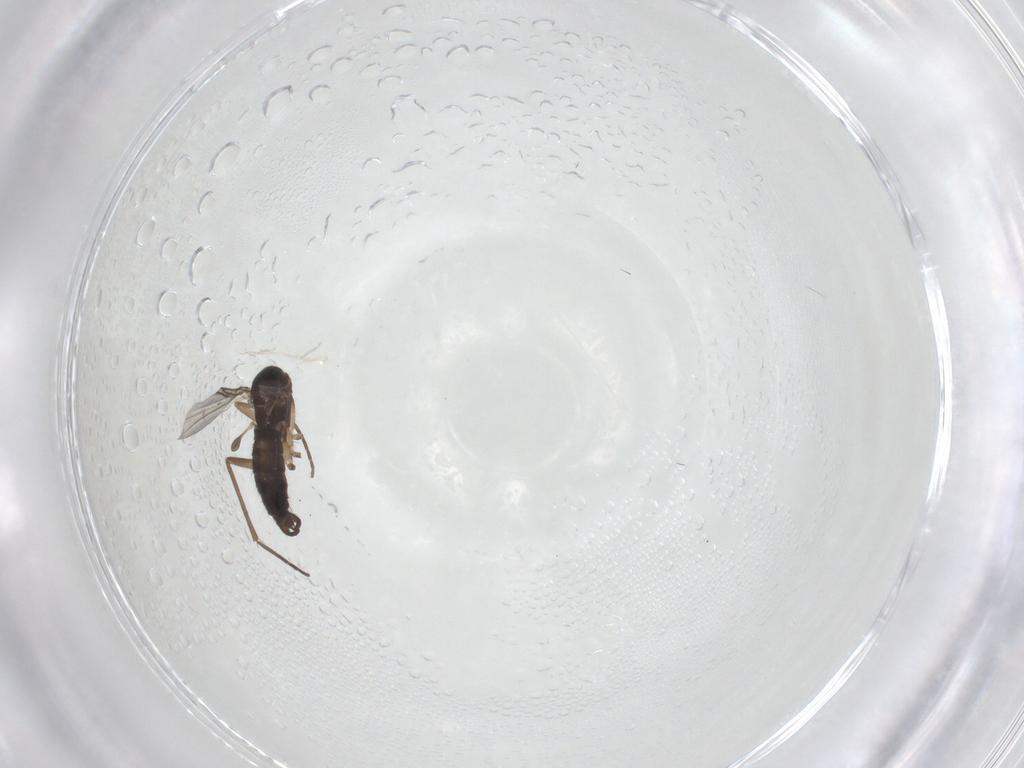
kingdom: Animalia
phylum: Arthropoda
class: Insecta
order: Diptera
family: Sciaridae
